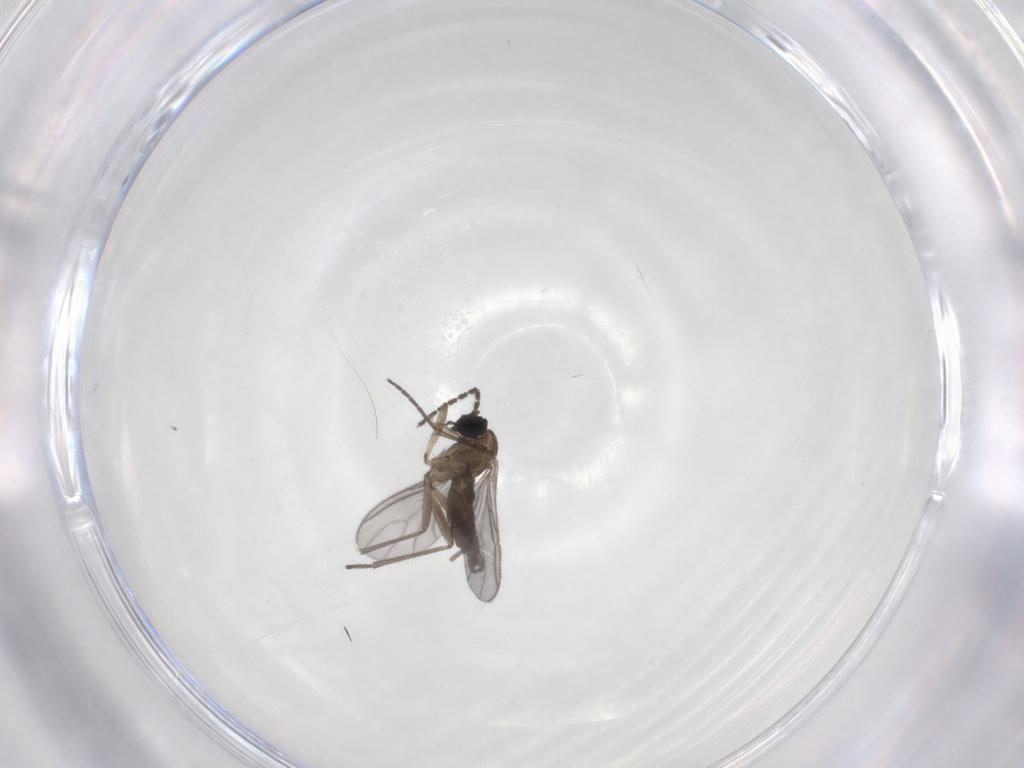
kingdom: Animalia
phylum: Arthropoda
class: Insecta
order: Diptera
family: Sciaridae
